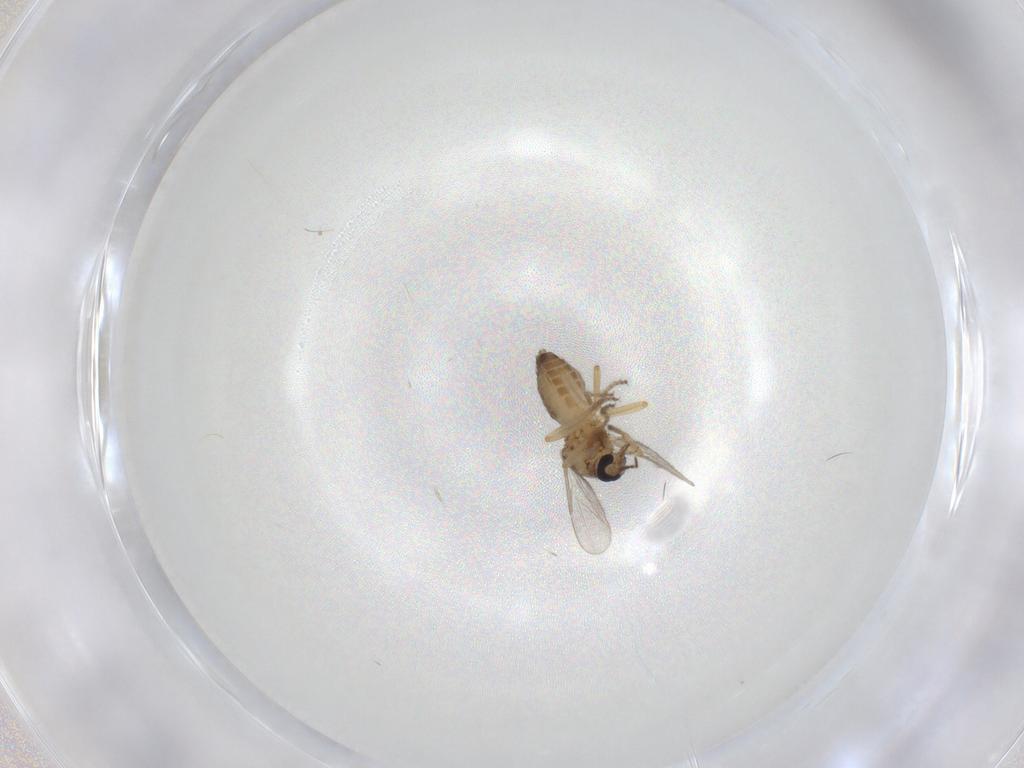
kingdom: Animalia
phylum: Arthropoda
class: Insecta
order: Diptera
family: Ceratopogonidae
